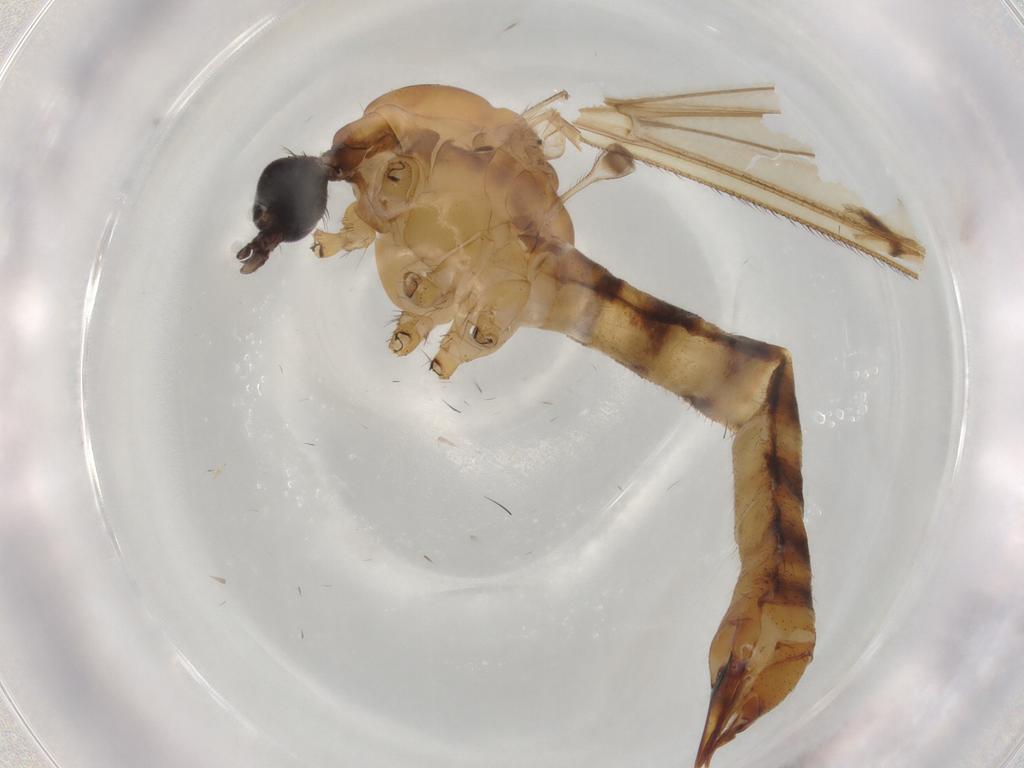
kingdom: Animalia
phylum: Arthropoda
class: Insecta
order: Diptera
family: Limoniidae
